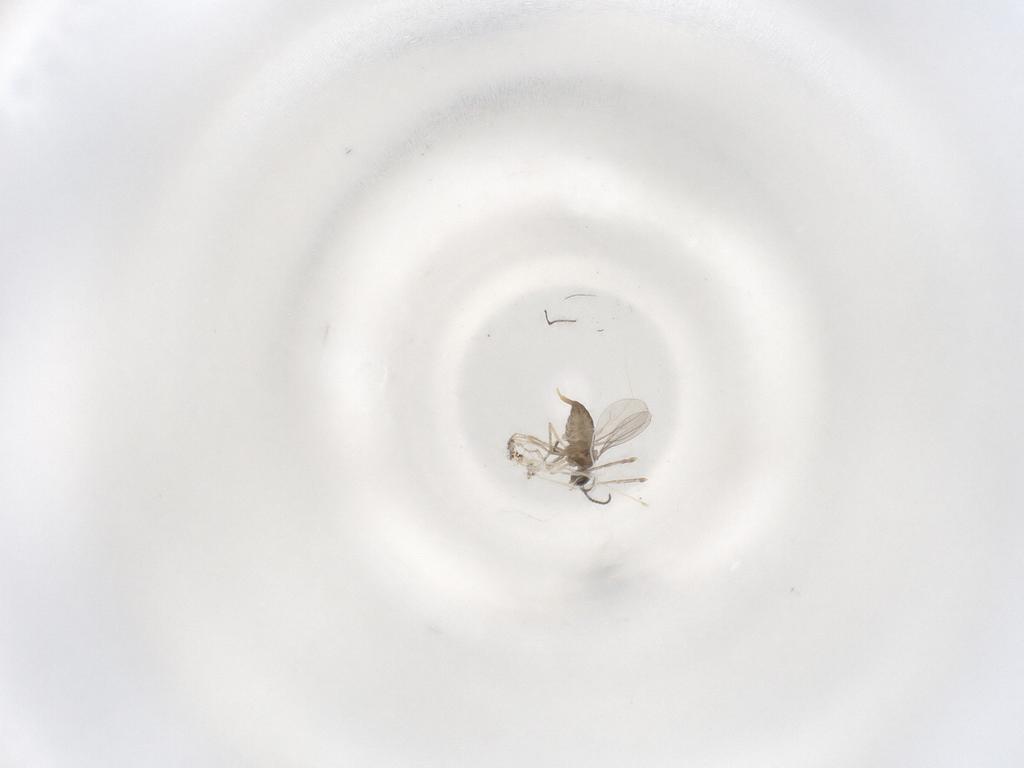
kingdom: Animalia
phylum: Arthropoda
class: Insecta
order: Diptera
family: Cecidomyiidae
